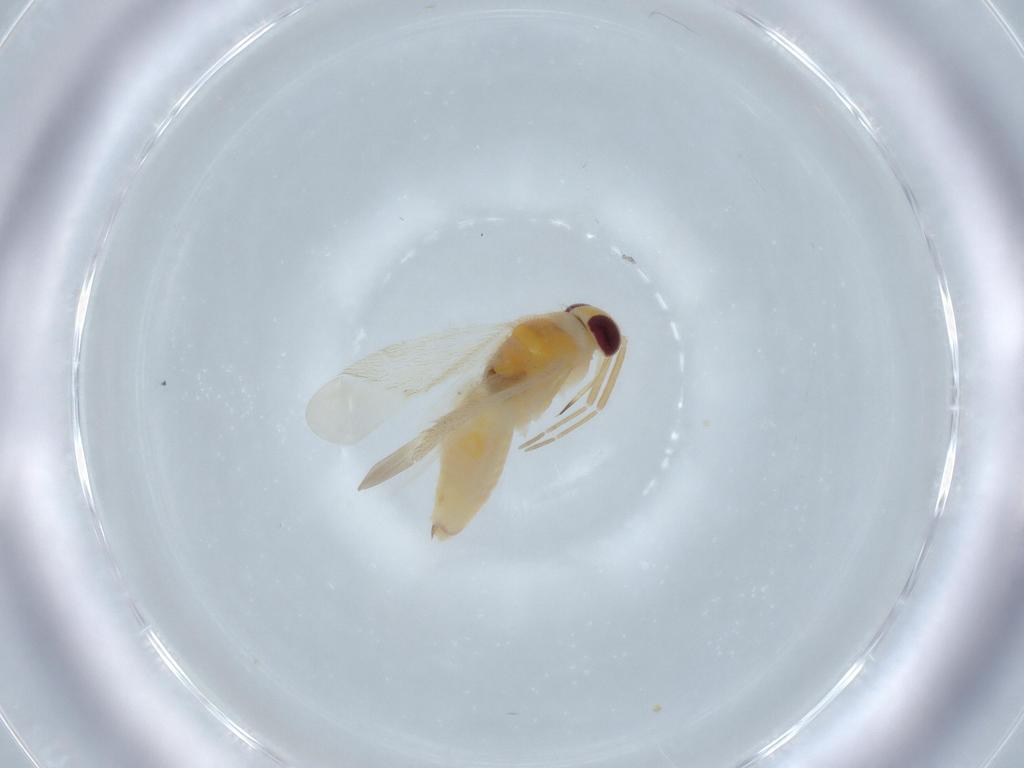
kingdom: Animalia
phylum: Arthropoda
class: Insecta
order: Hemiptera
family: Miridae
